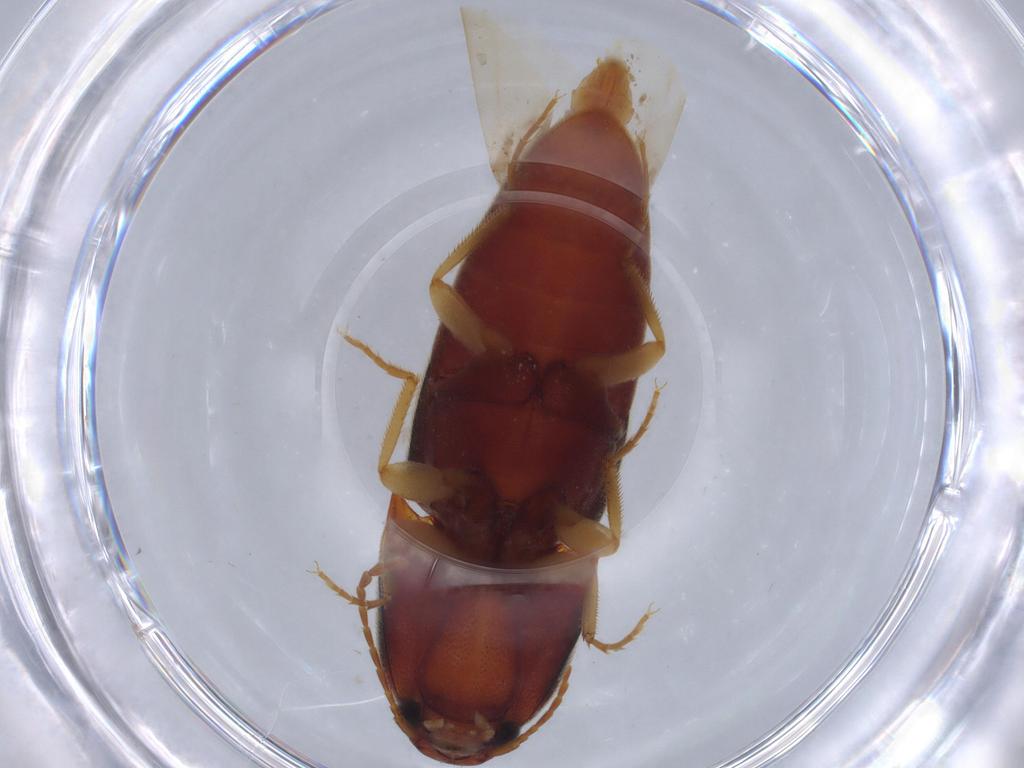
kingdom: Animalia
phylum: Arthropoda
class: Insecta
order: Coleoptera
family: Elateridae
